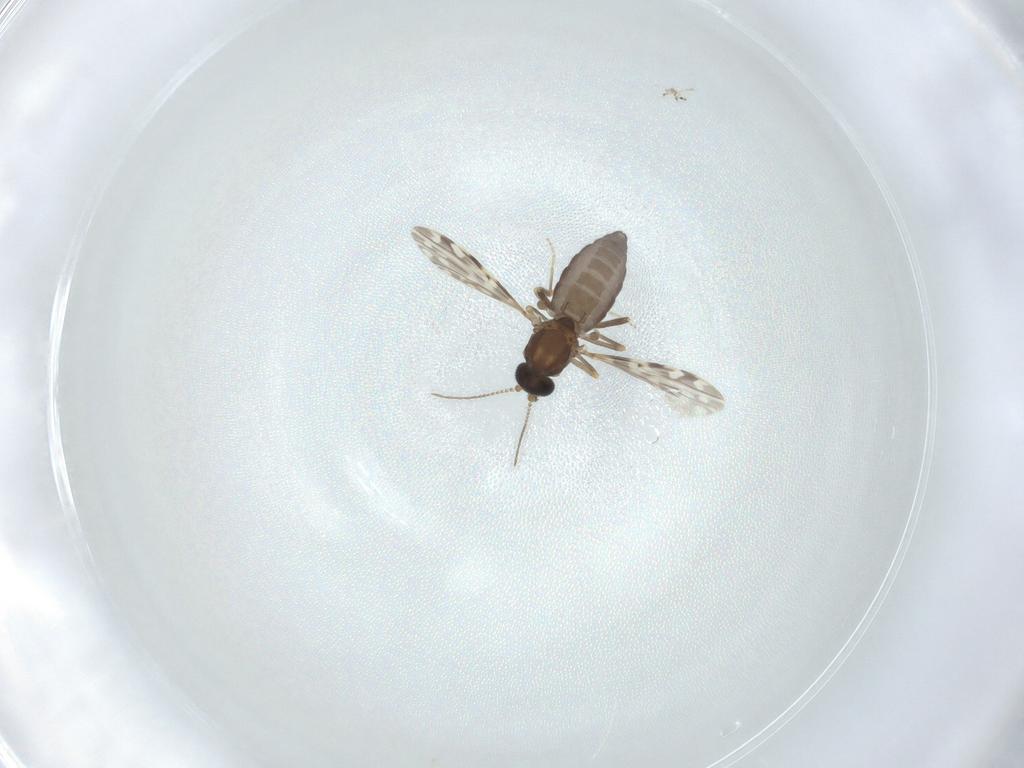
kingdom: Animalia
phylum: Arthropoda
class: Insecta
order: Diptera
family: Ceratopogonidae
